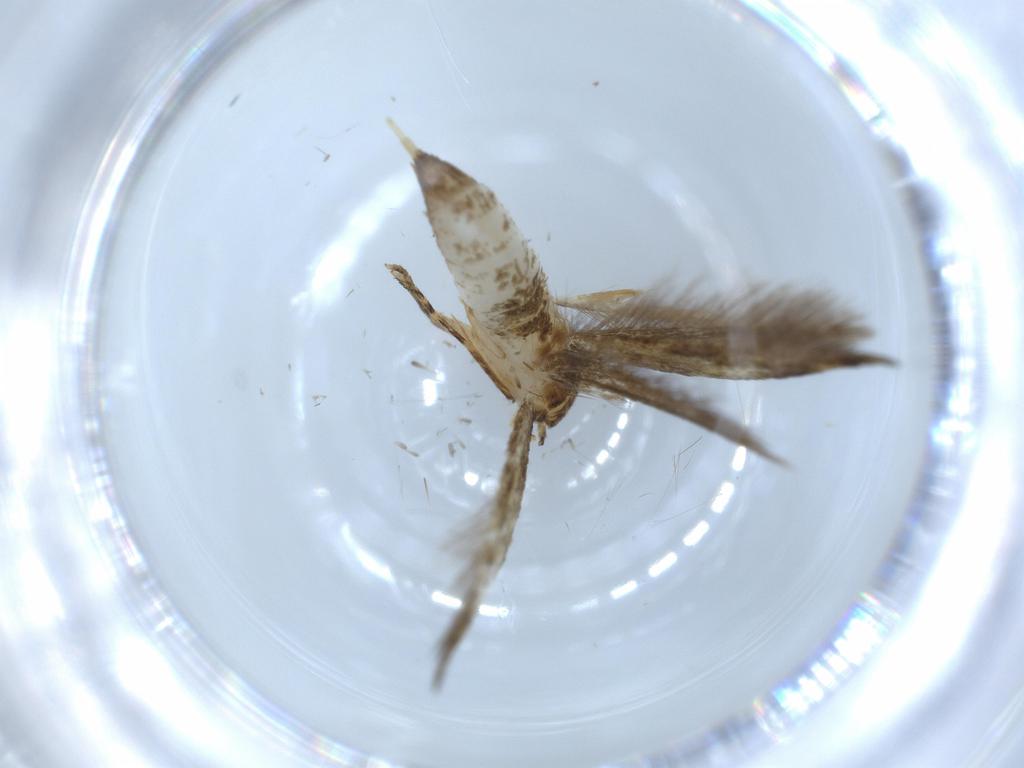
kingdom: Animalia
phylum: Arthropoda
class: Insecta
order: Lepidoptera
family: Tineidae
